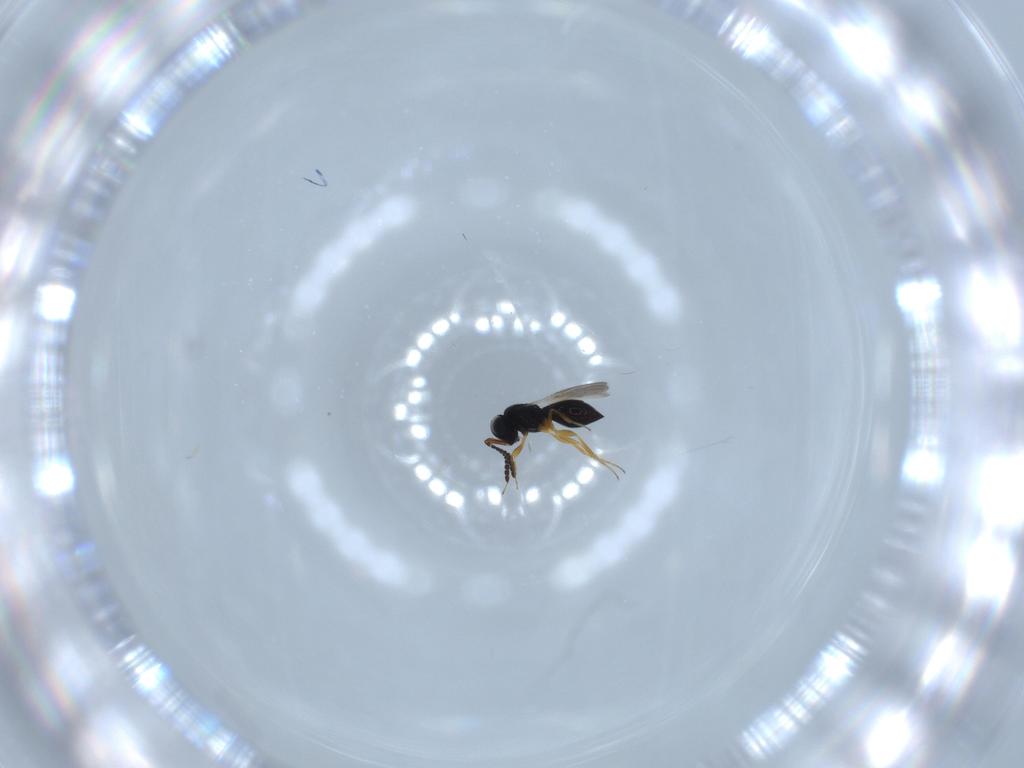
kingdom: Animalia
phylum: Arthropoda
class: Insecta
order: Hymenoptera
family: Scelionidae
